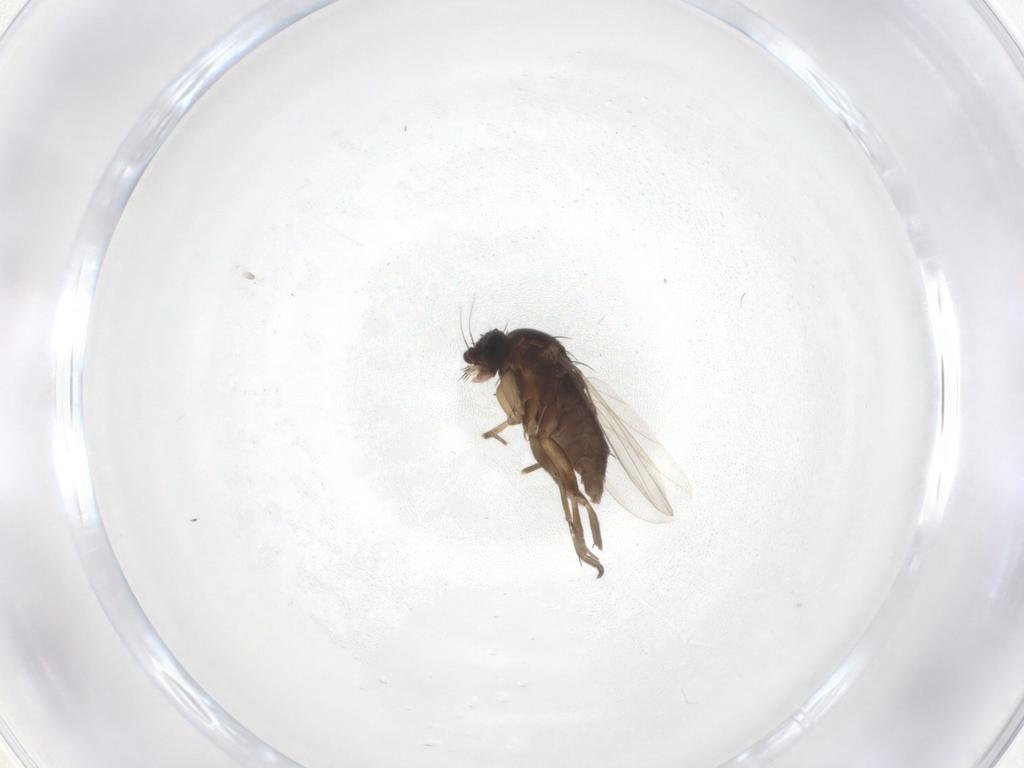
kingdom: Animalia
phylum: Arthropoda
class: Insecta
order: Diptera
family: Phoridae
